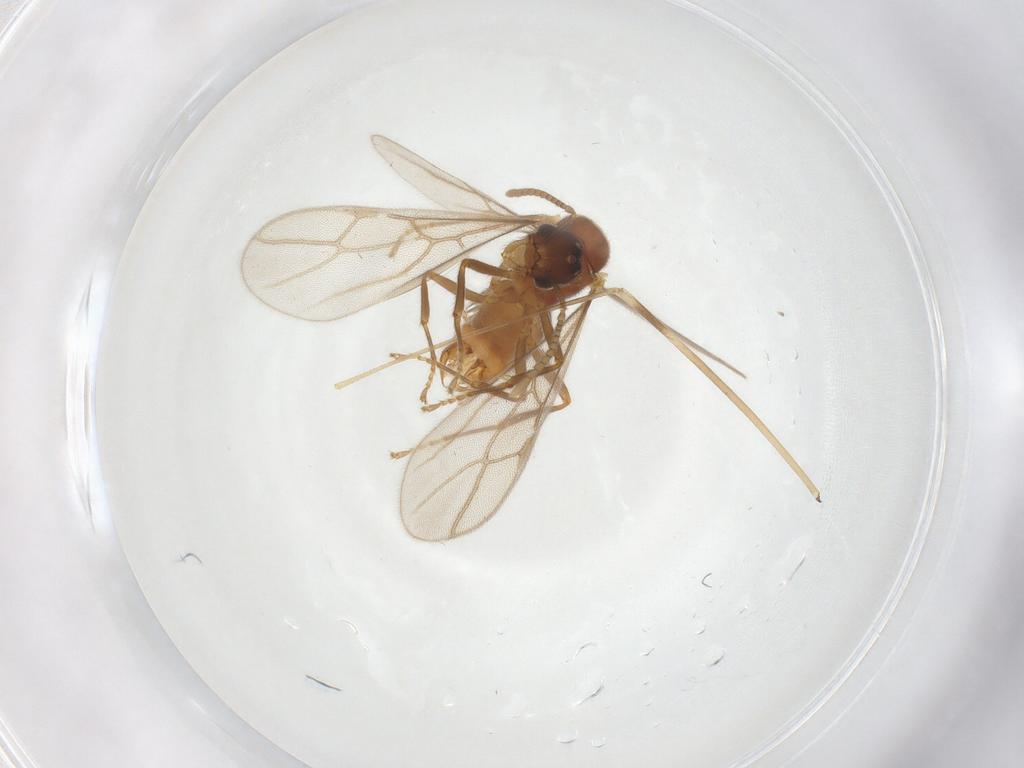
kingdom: Animalia
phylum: Arthropoda
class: Insecta
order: Hymenoptera
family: Formicidae
